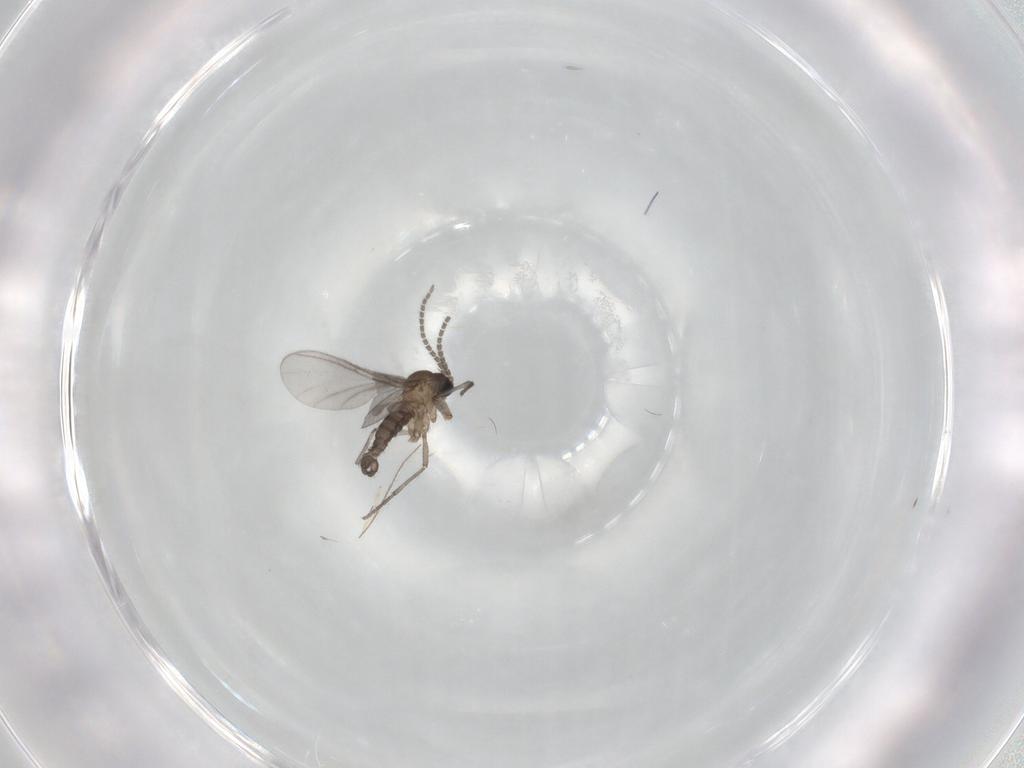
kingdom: Animalia
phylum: Arthropoda
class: Insecta
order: Diptera
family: Sciaridae
